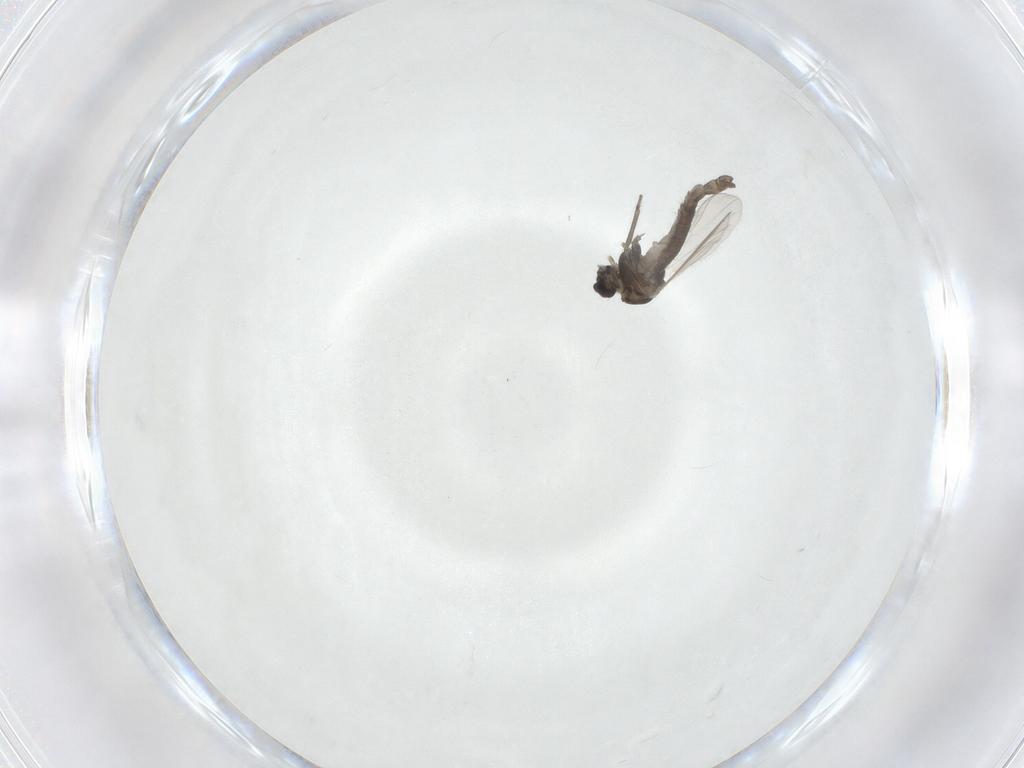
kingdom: Animalia
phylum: Arthropoda
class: Insecta
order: Diptera
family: Chironomidae
